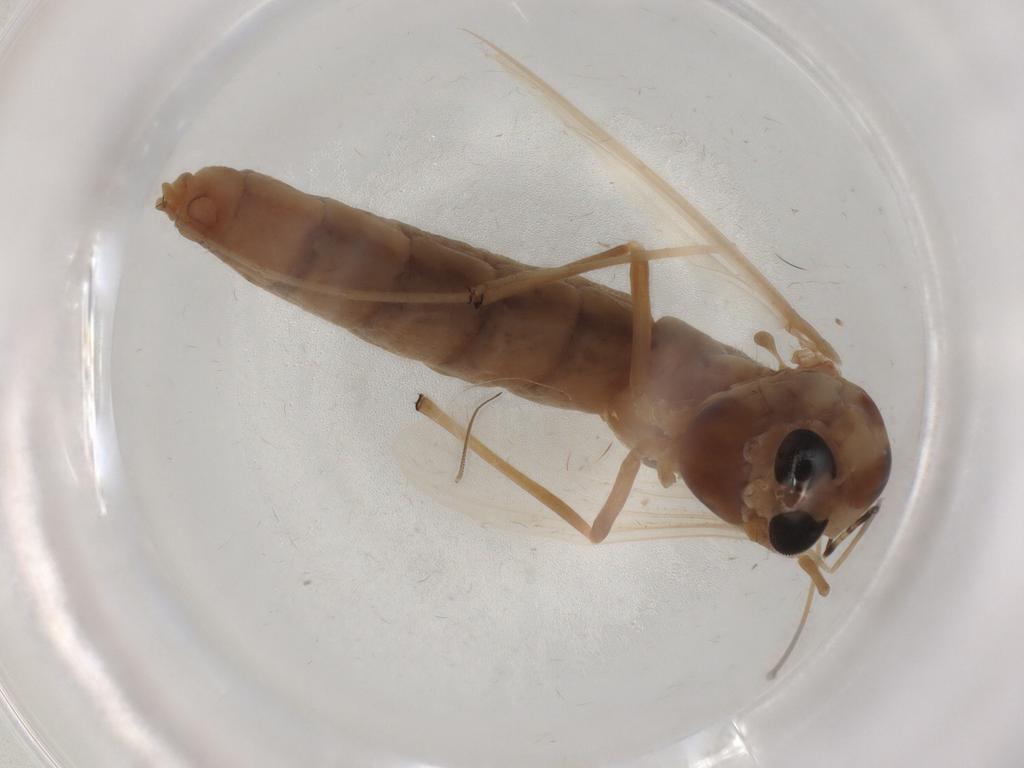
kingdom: Animalia
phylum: Arthropoda
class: Insecta
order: Diptera
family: Chironomidae
